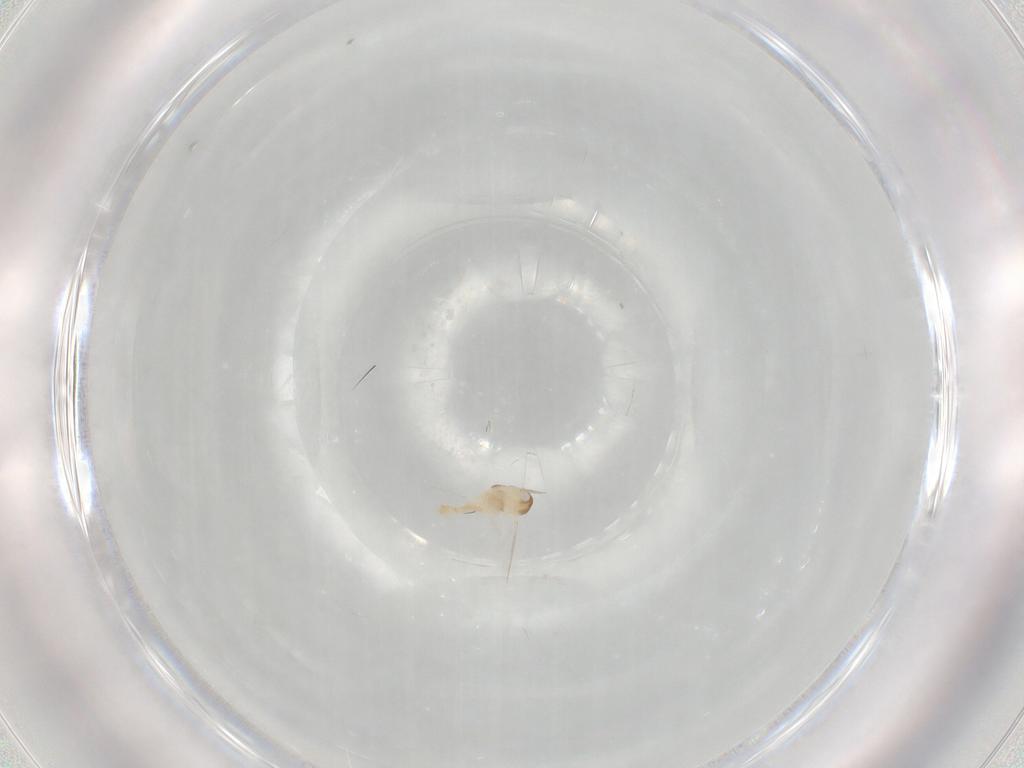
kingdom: Animalia
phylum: Arthropoda
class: Insecta
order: Diptera
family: Cecidomyiidae
